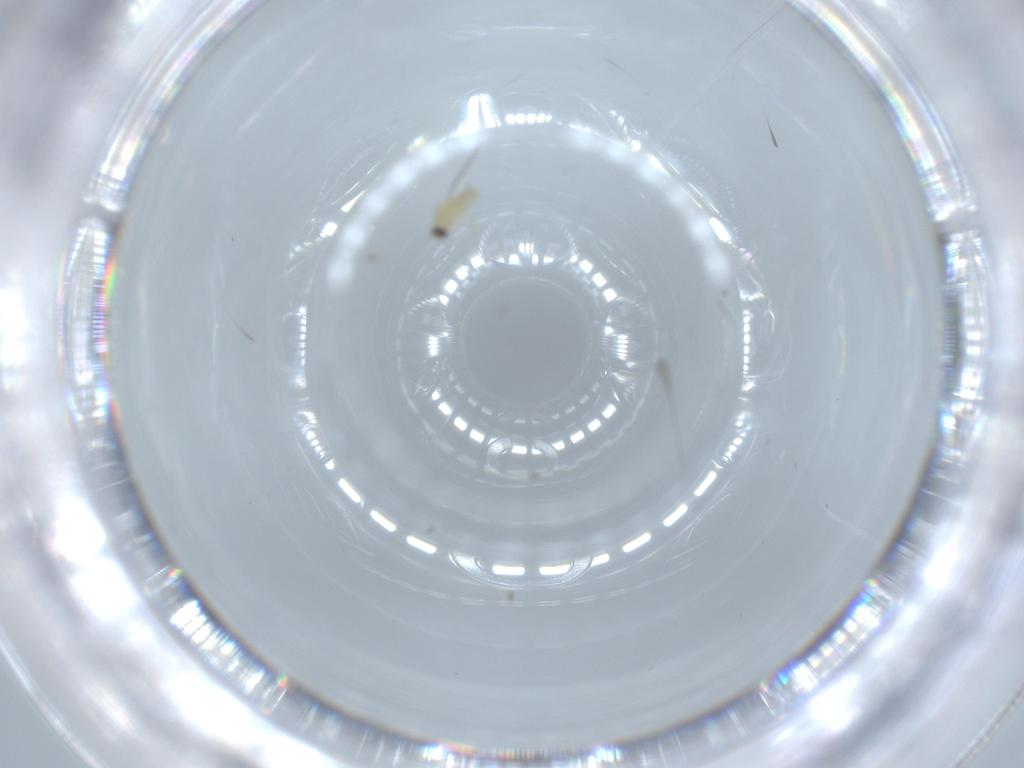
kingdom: Animalia
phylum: Arthropoda
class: Insecta
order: Diptera
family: Cecidomyiidae
